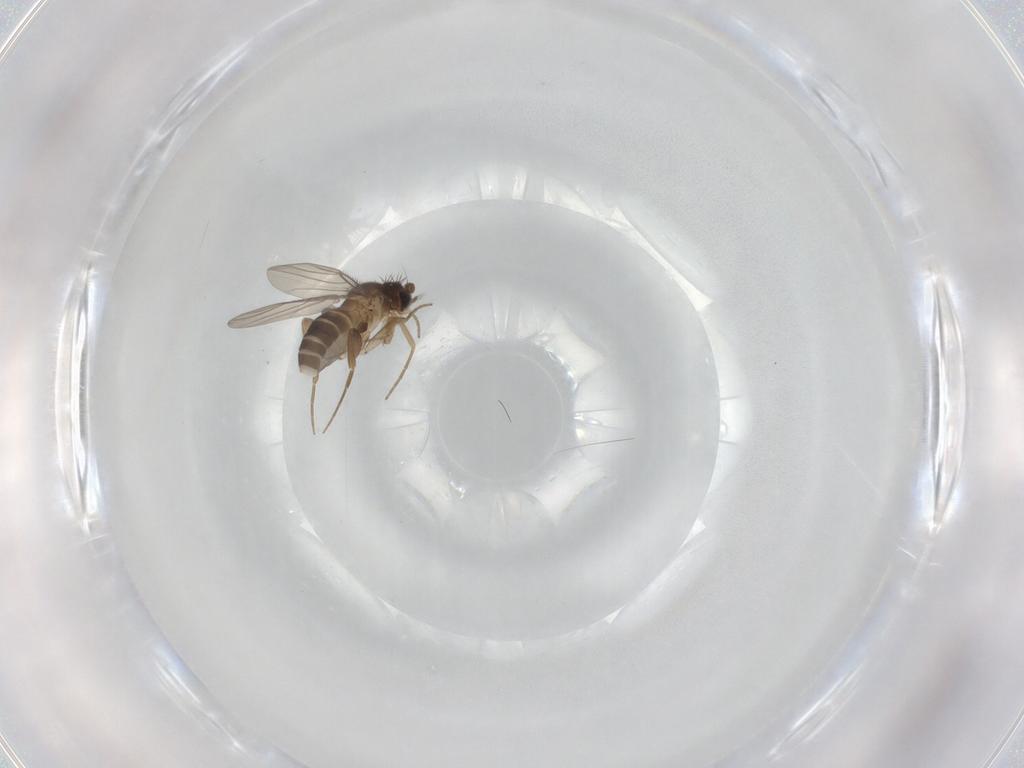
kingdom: Animalia
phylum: Arthropoda
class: Insecta
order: Diptera
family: Phoridae
